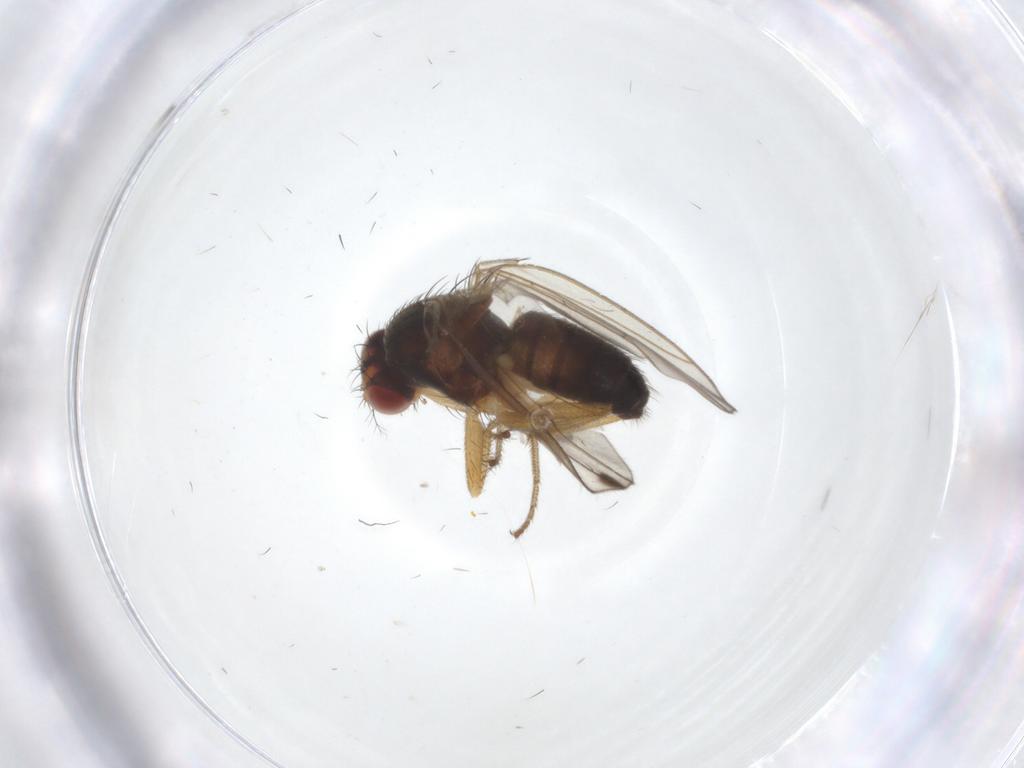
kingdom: Animalia
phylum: Arthropoda
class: Insecta
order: Diptera
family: Drosophilidae
